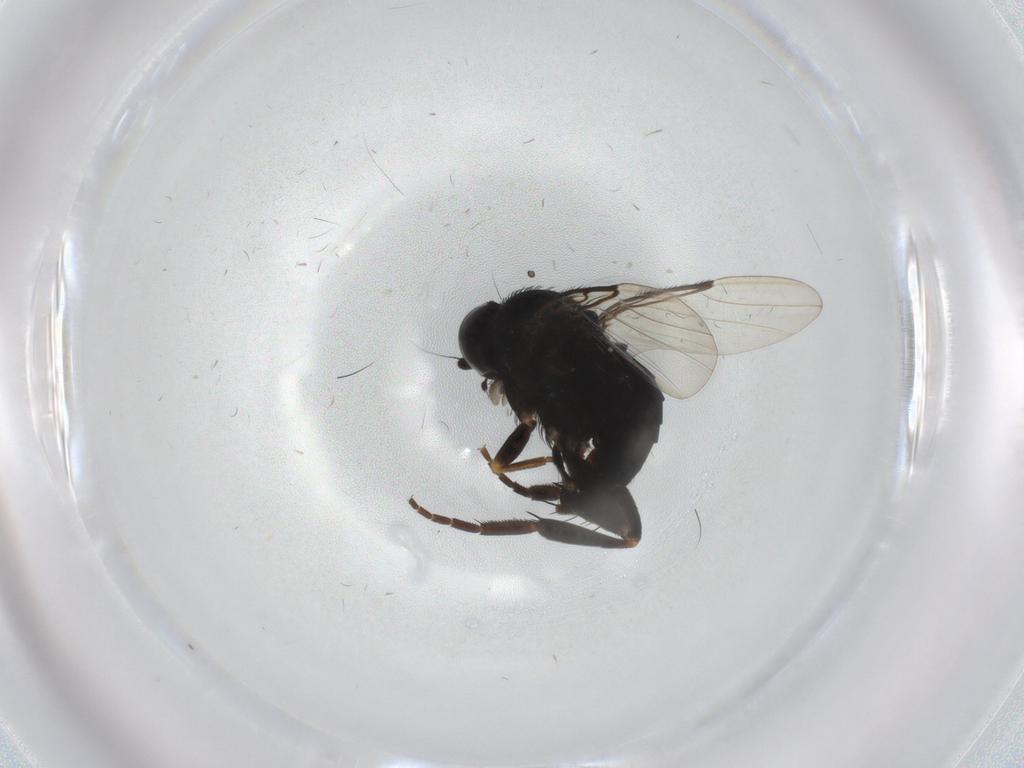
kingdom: Animalia
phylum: Arthropoda
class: Insecta
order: Diptera
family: Phoridae
